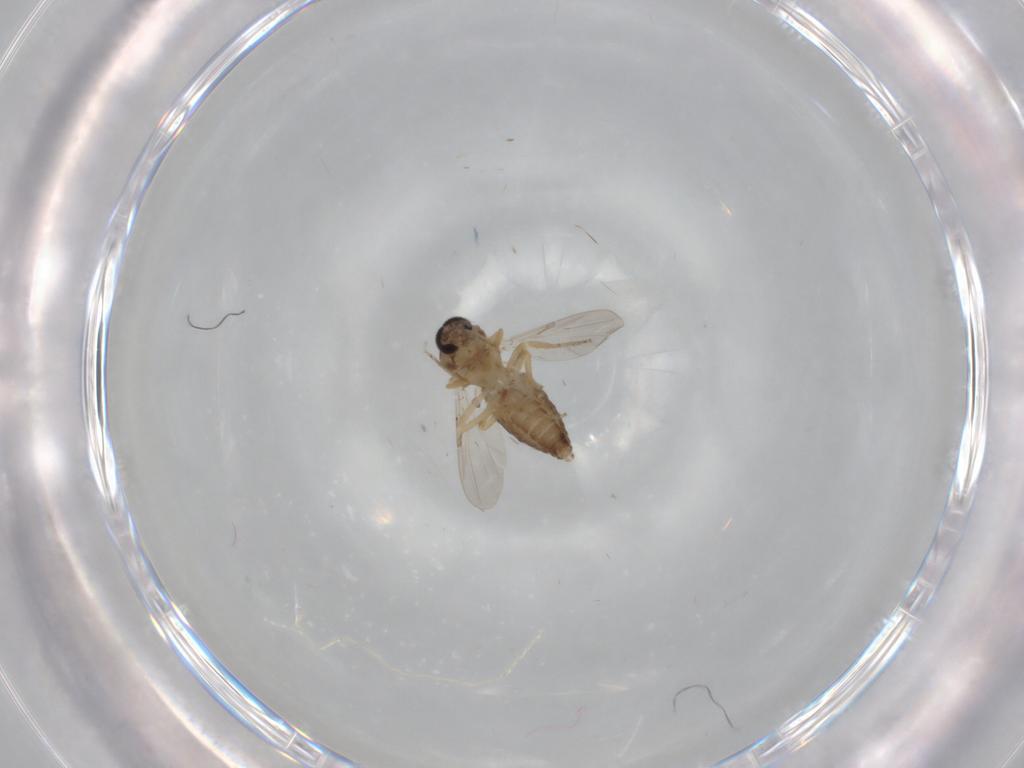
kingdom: Animalia
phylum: Arthropoda
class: Insecta
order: Diptera
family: Ceratopogonidae
